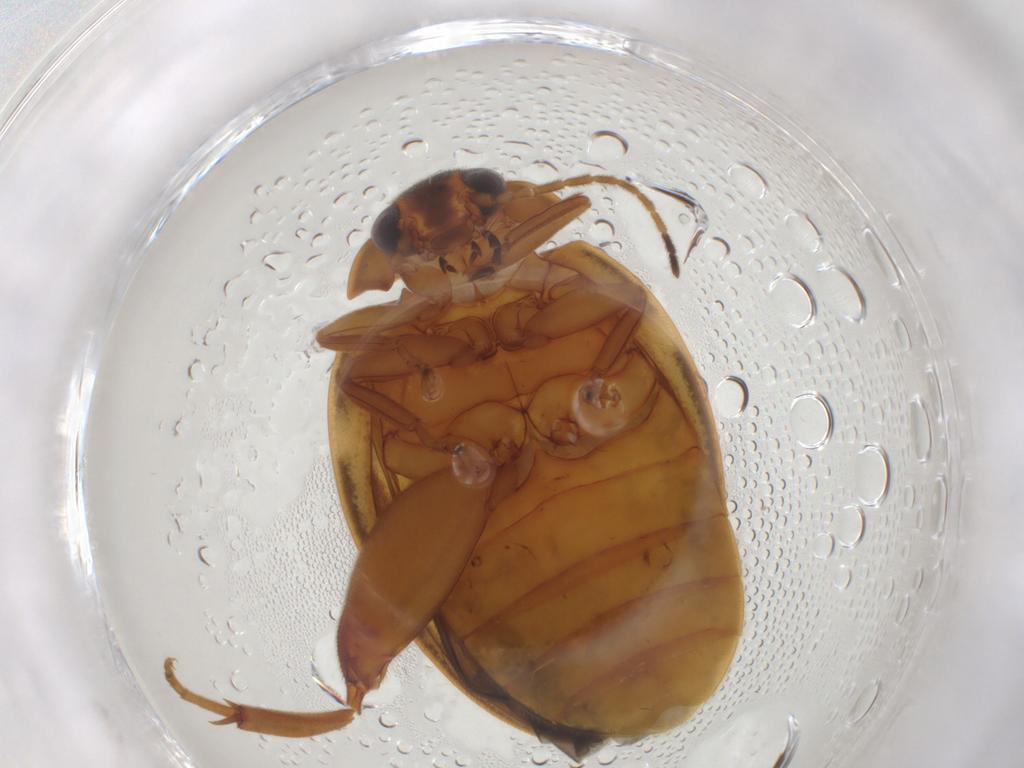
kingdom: Animalia
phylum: Arthropoda
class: Insecta
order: Coleoptera
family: Scirtidae
